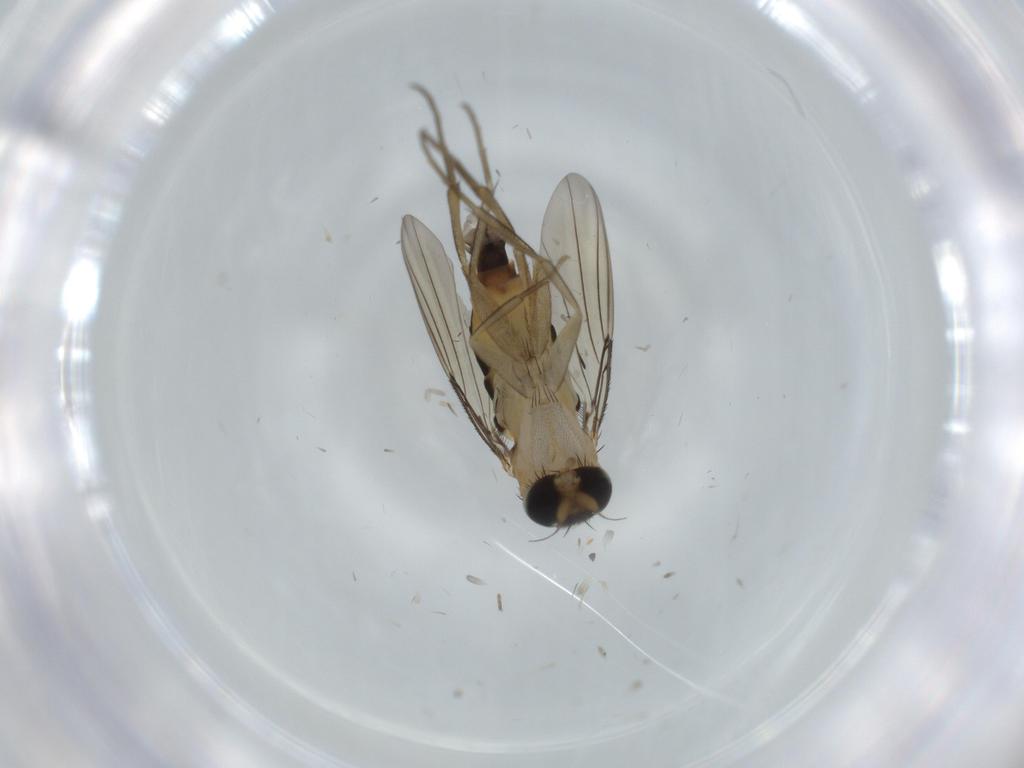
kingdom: Animalia
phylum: Arthropoda
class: Insecta
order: Diptera
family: Phoridae
